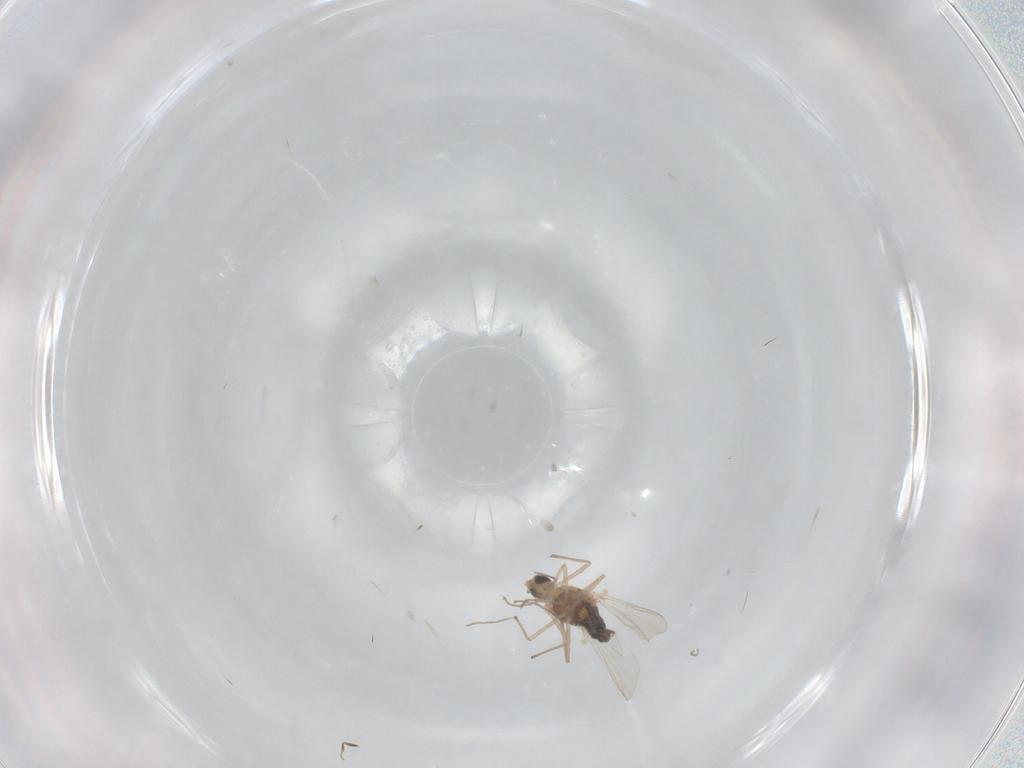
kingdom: Animalia
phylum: Arthropoda
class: Insecta
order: Diptera
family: Chironomidae
